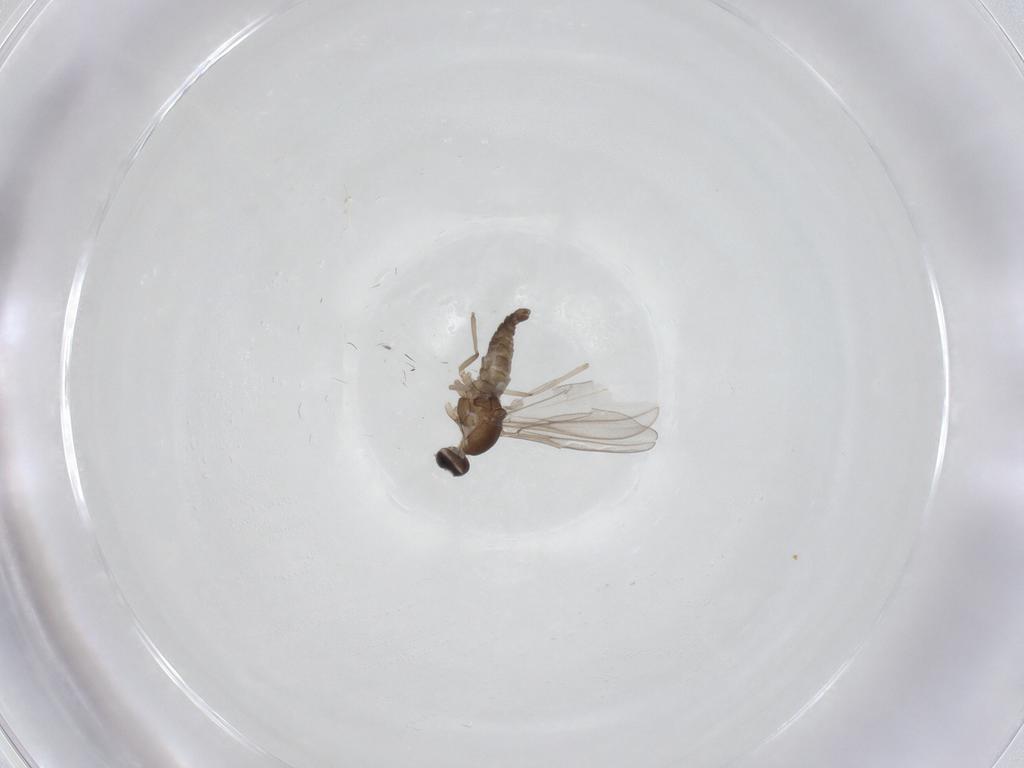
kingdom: Animalia
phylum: Arthropoda
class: Insecta
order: Diptera
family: Cecidomyiidae
